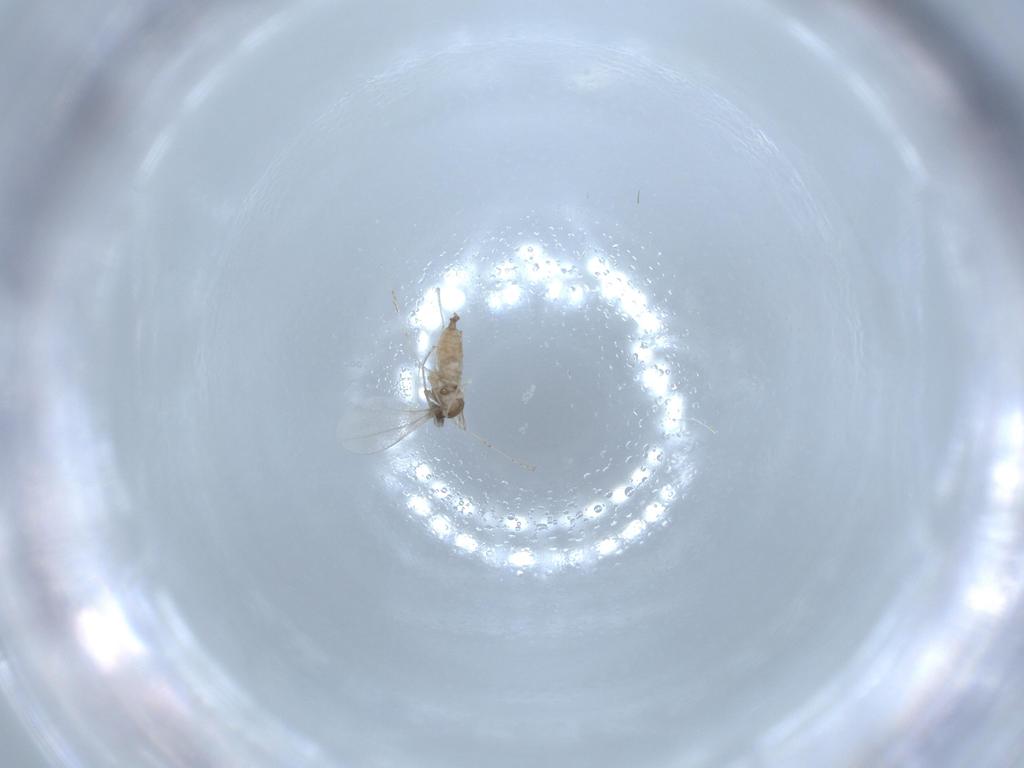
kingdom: Animalia
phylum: Arthropoda
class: Insecta
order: Diptera
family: Cecidomyiidae
